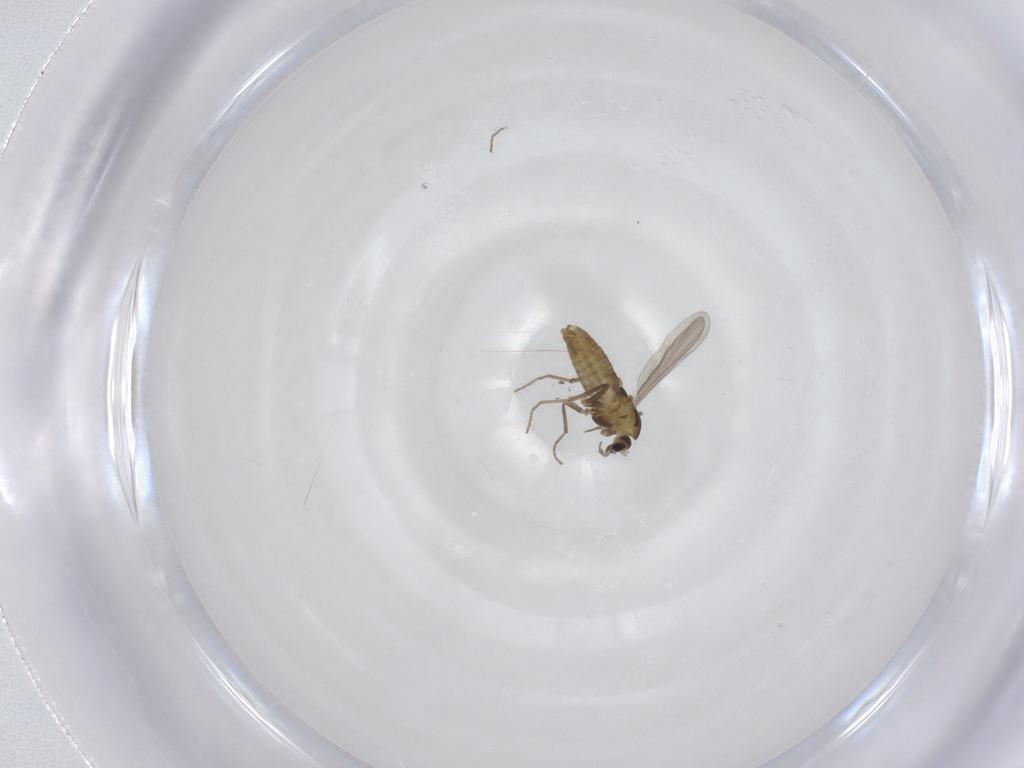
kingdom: Animalia
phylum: Arthropoda
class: Insecta
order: Diptera
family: Chironomidae
